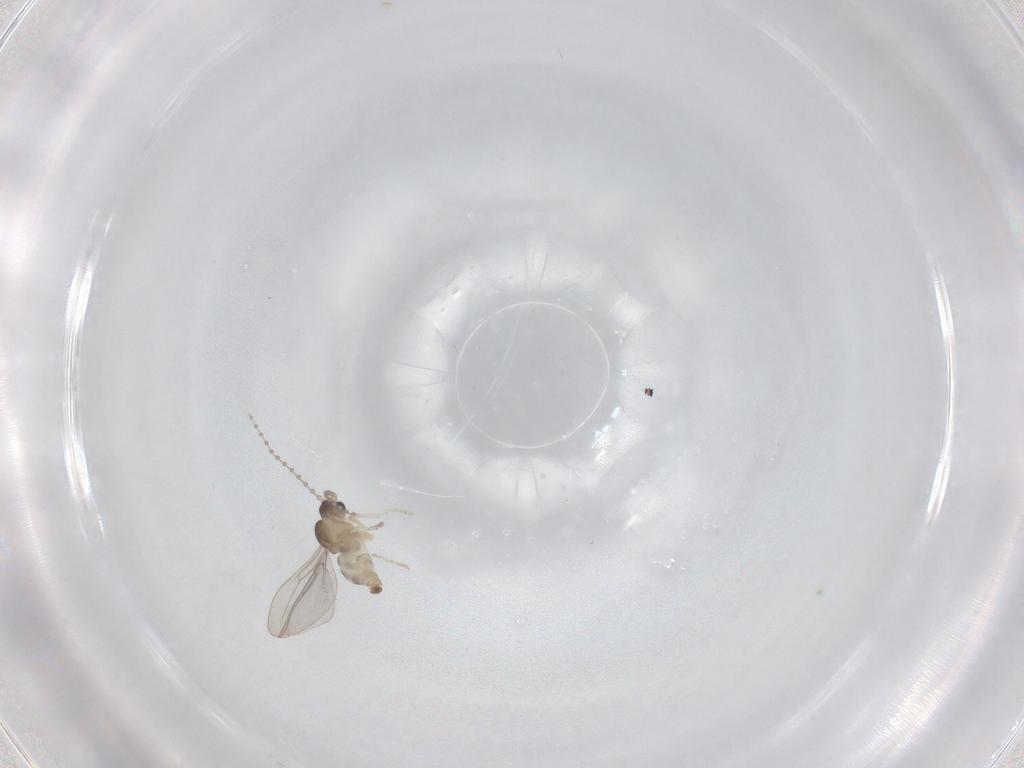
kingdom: Animalia
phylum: Arthropoda
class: Insecta
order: Diptera
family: Cecidomyiidae
